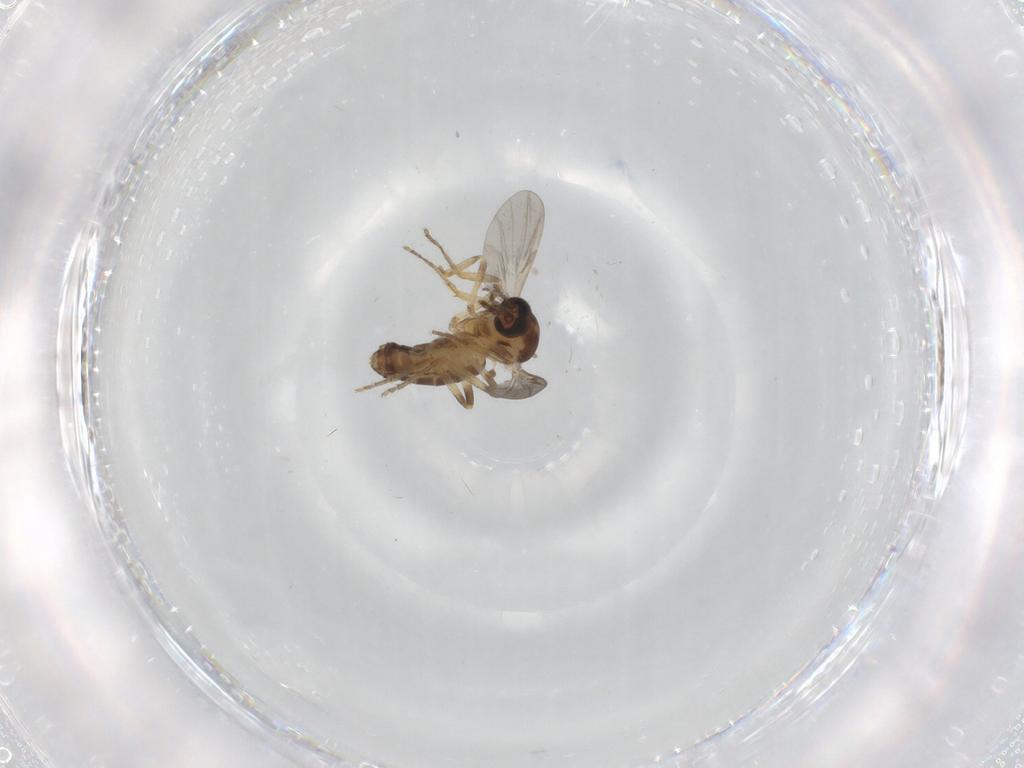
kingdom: Animalia
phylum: Arthropoda
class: Insecta
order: Diptera
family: Ceratopogonidae
